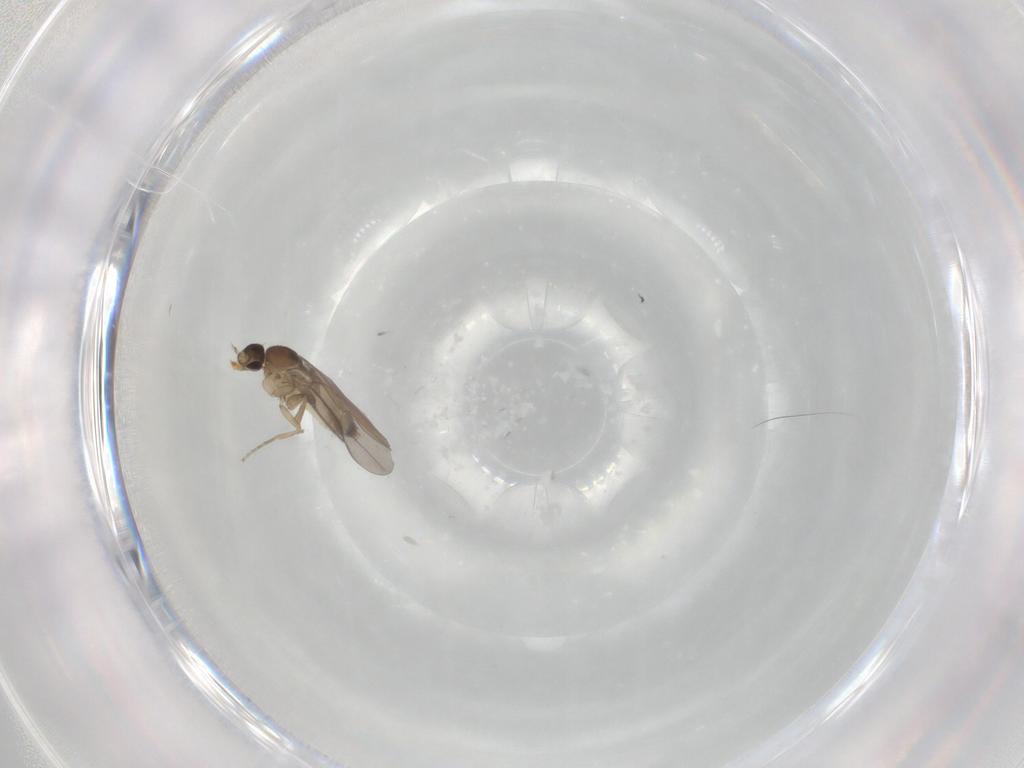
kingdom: Animalia
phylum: Arthropoda
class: Insecta
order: Diptera
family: Phoridae
